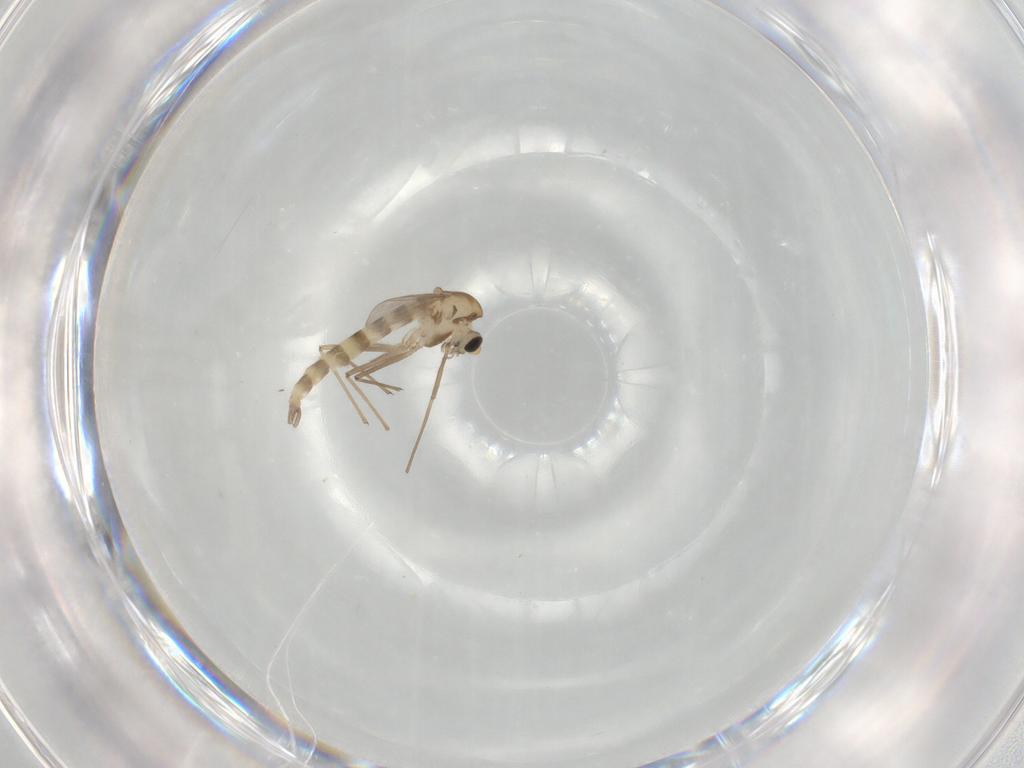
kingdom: Animalia
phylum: Arthropoda
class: Insecta
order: Diptera
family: Chironomidae
